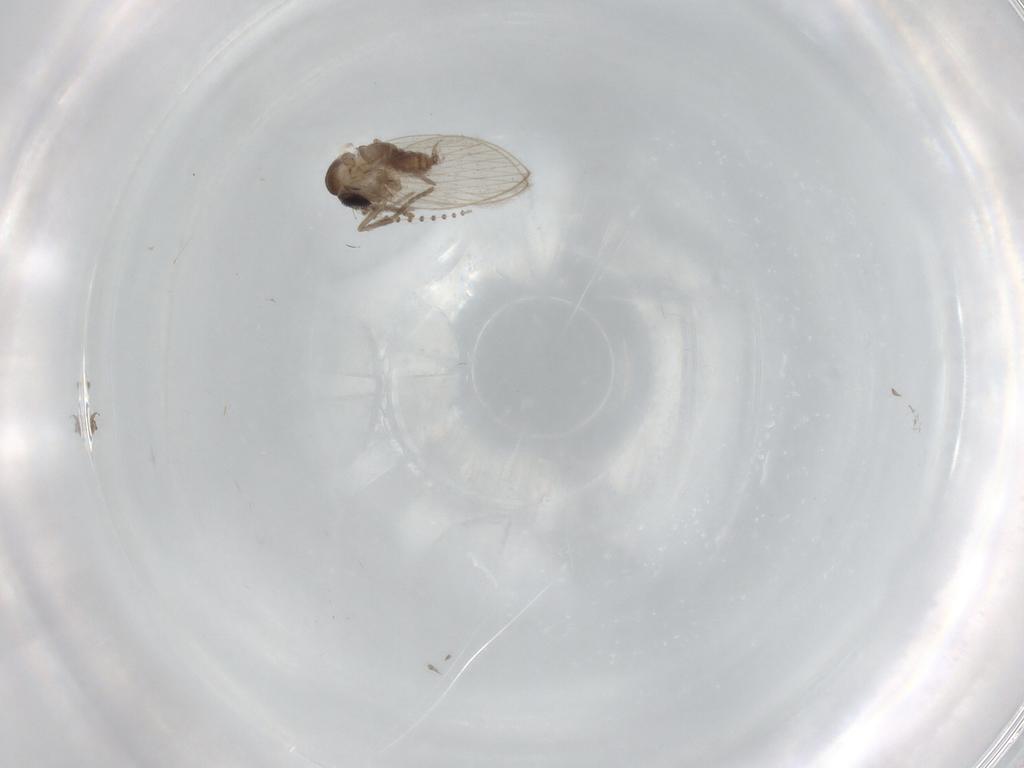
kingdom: Animalia
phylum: Arthropoda
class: Insecta
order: Diptera
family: Psychodidae
